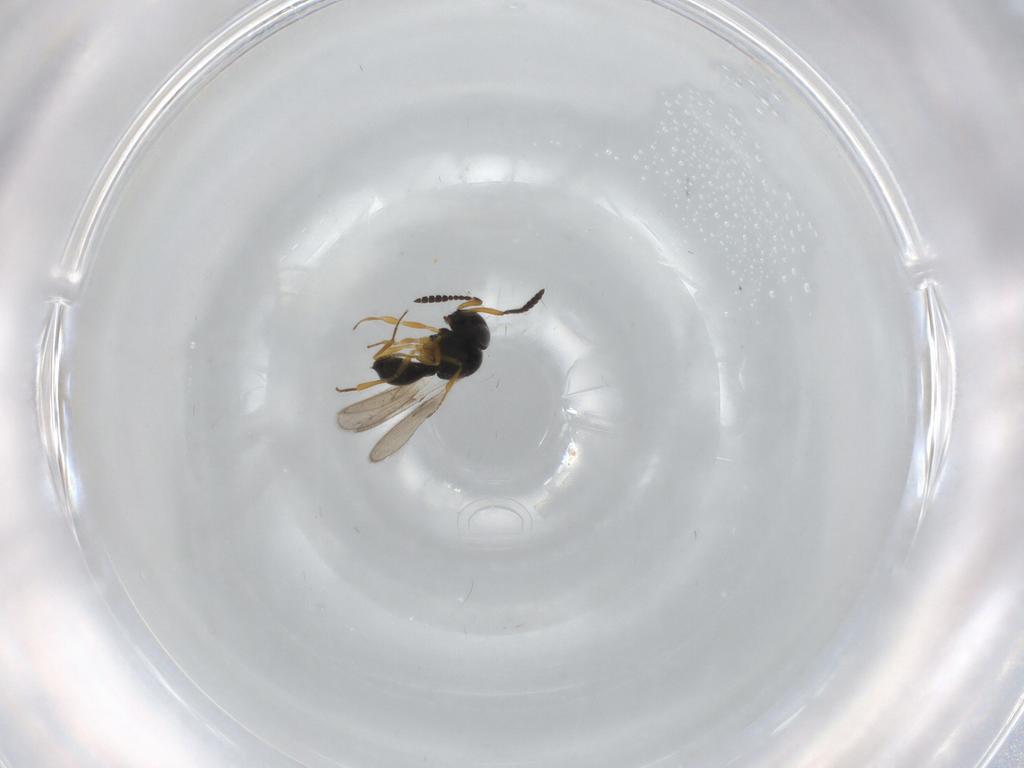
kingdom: Animalia
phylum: Arthropoda
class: Insecta
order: Hymenoptera
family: Scelionidae
